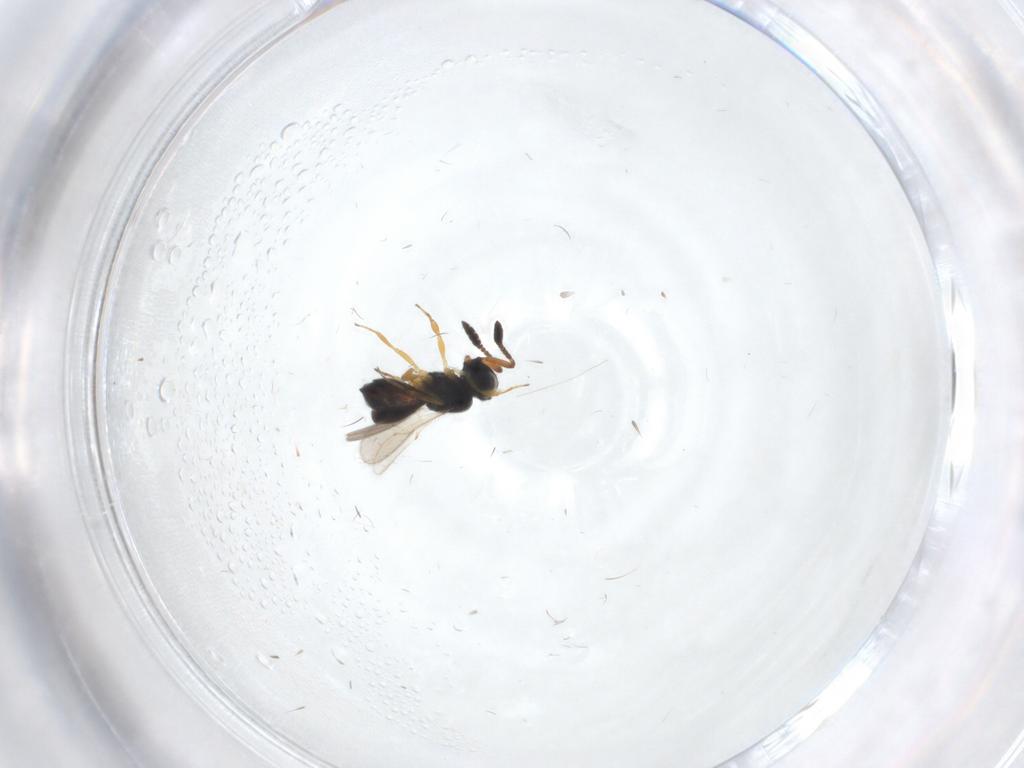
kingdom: Animalia
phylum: Arthropoda
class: Insecta
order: Hymenoptera
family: Scelionidae
